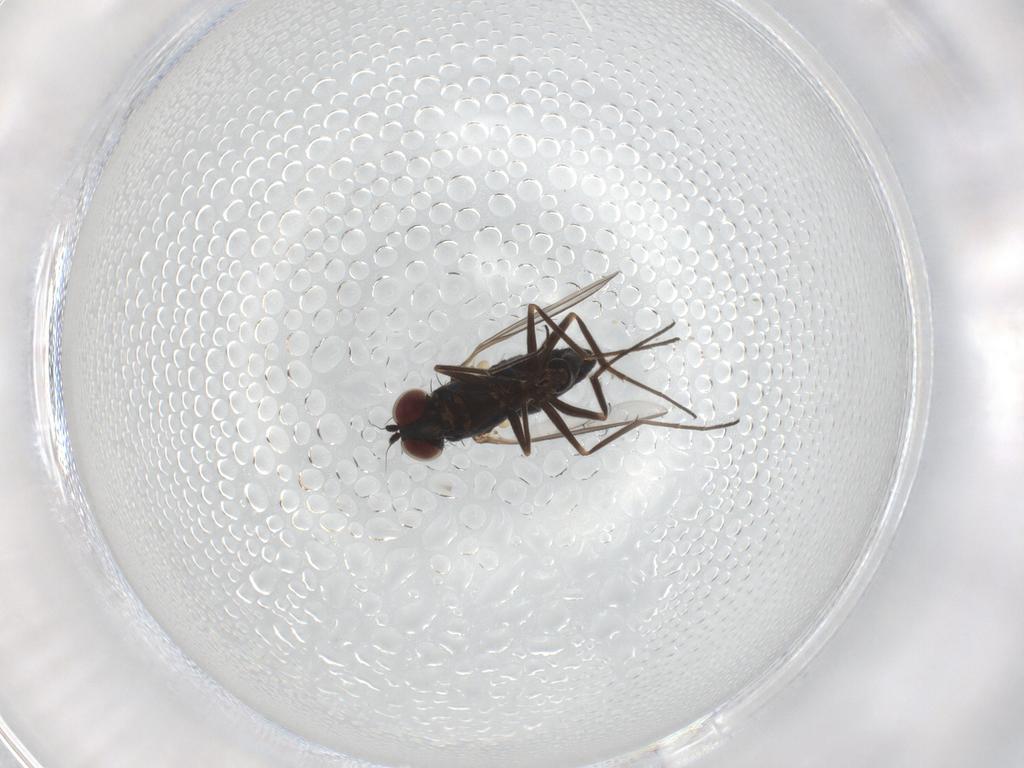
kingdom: Animalia
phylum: Arthropoda
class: Insecta
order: Diptera
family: Dolichopodidae
